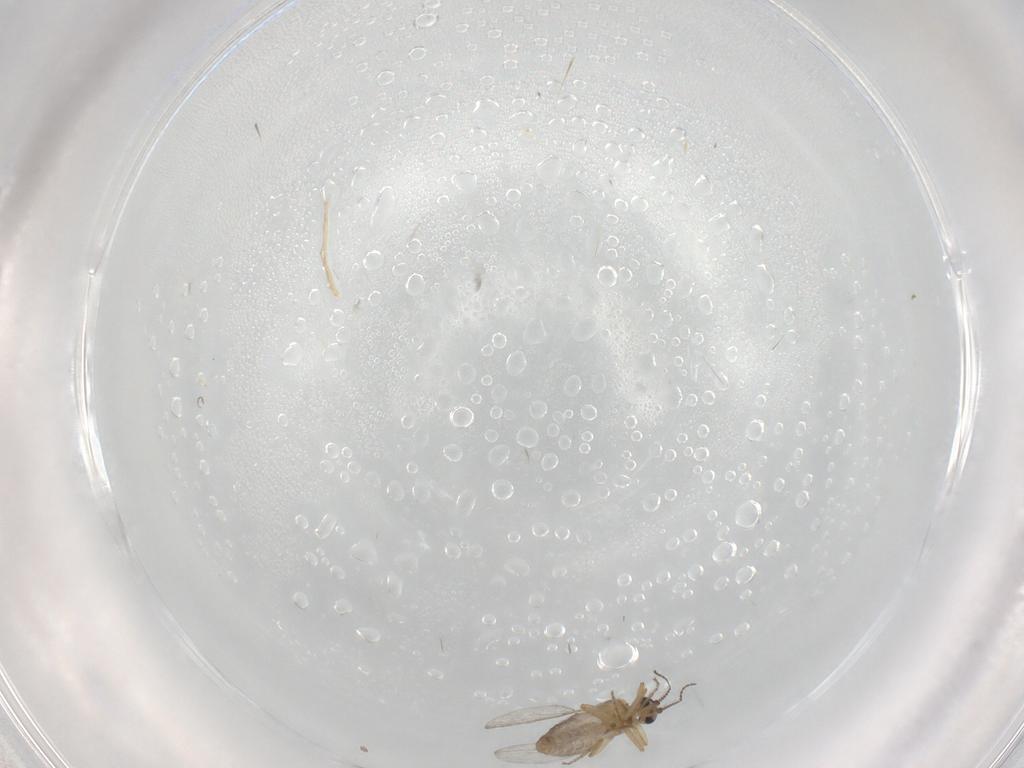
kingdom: Animalia
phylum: Arthropoda
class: Insecta
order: Diptera
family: Ceratopogonidae
